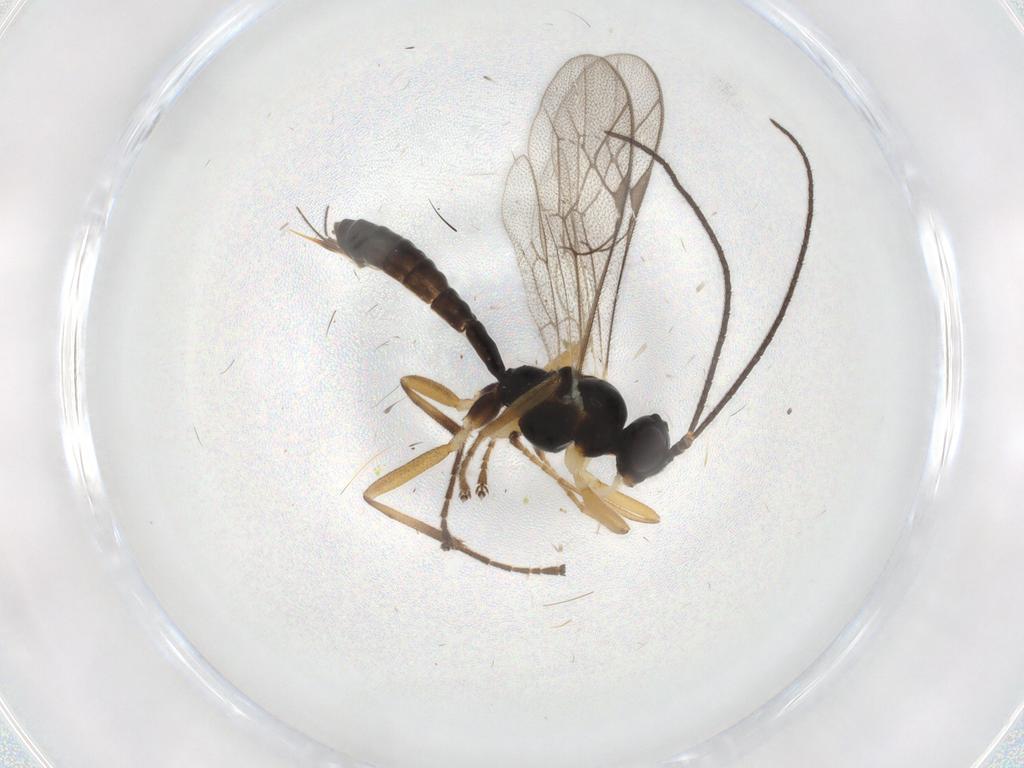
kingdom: Animalia
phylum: Arthropoda
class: Insecta
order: Hymenoptera
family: Ichneumonidae
